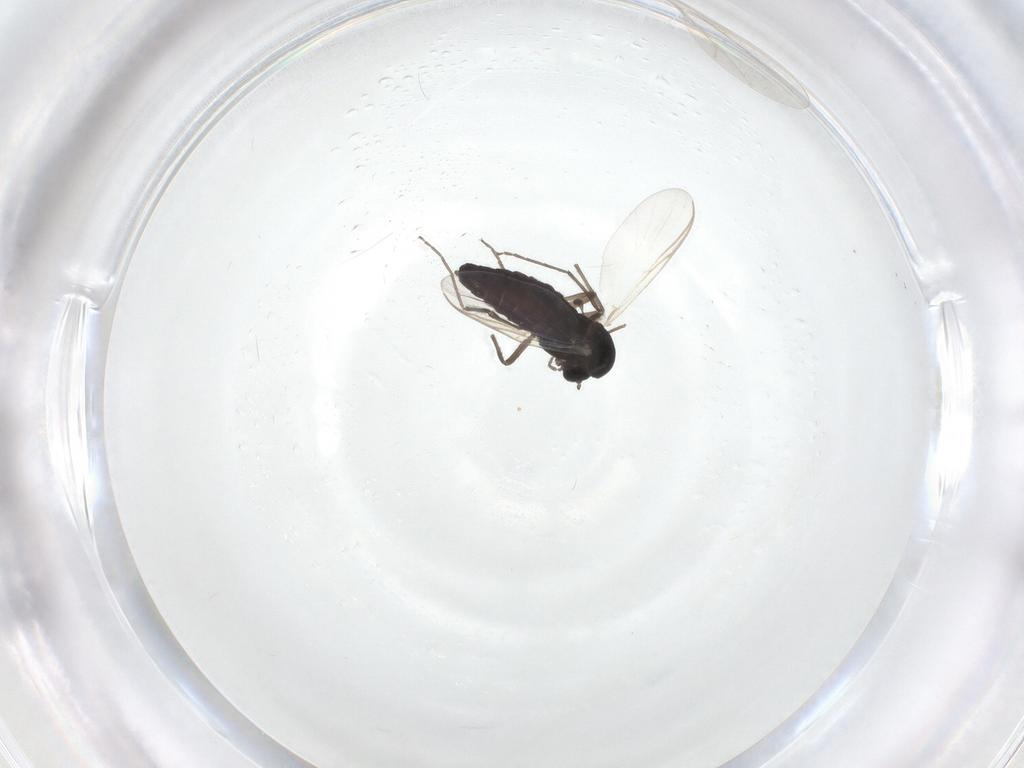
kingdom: Animalia
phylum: Arthropoda
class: Insecta
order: Diptera
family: Chironomidae
